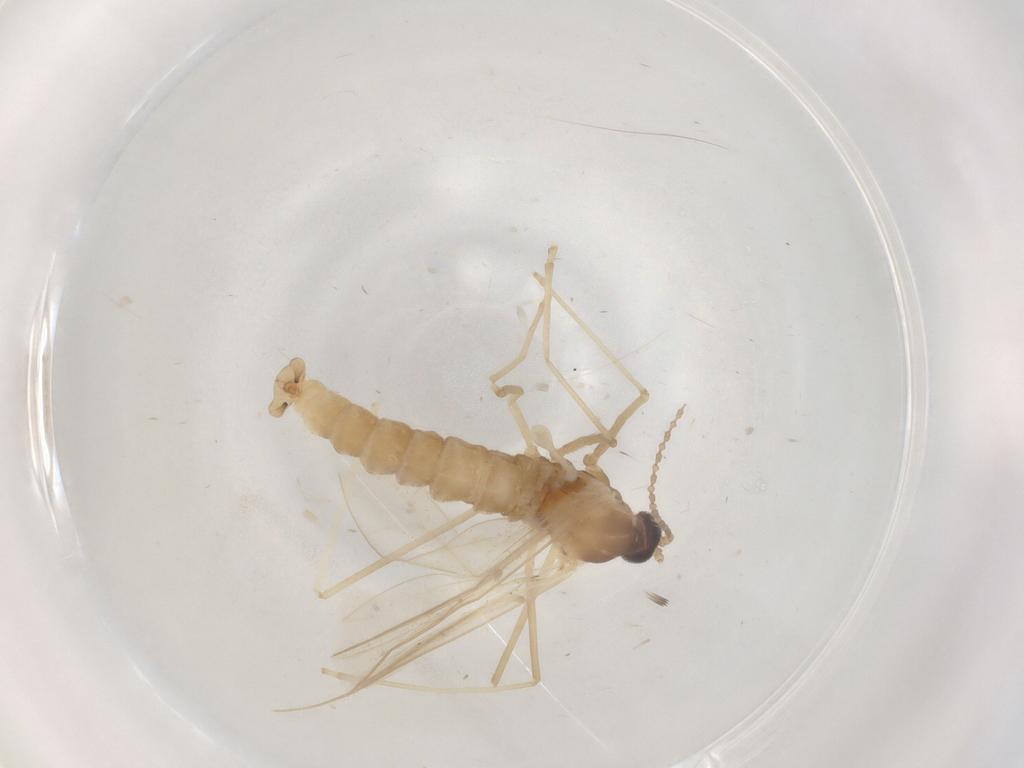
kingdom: Animalia
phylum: Arthropoda
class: Insecta
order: Diptera
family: Cecidomyiidae
